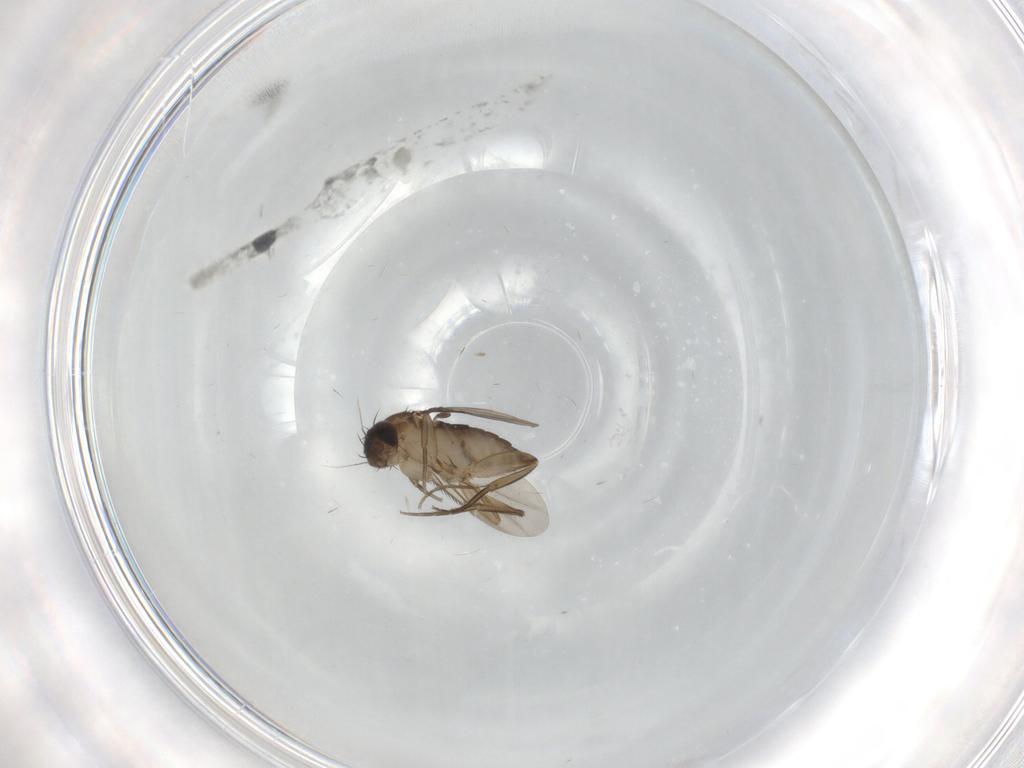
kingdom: Animalia
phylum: Arthropoda
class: Insecta
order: Diptera
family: Phoridae
